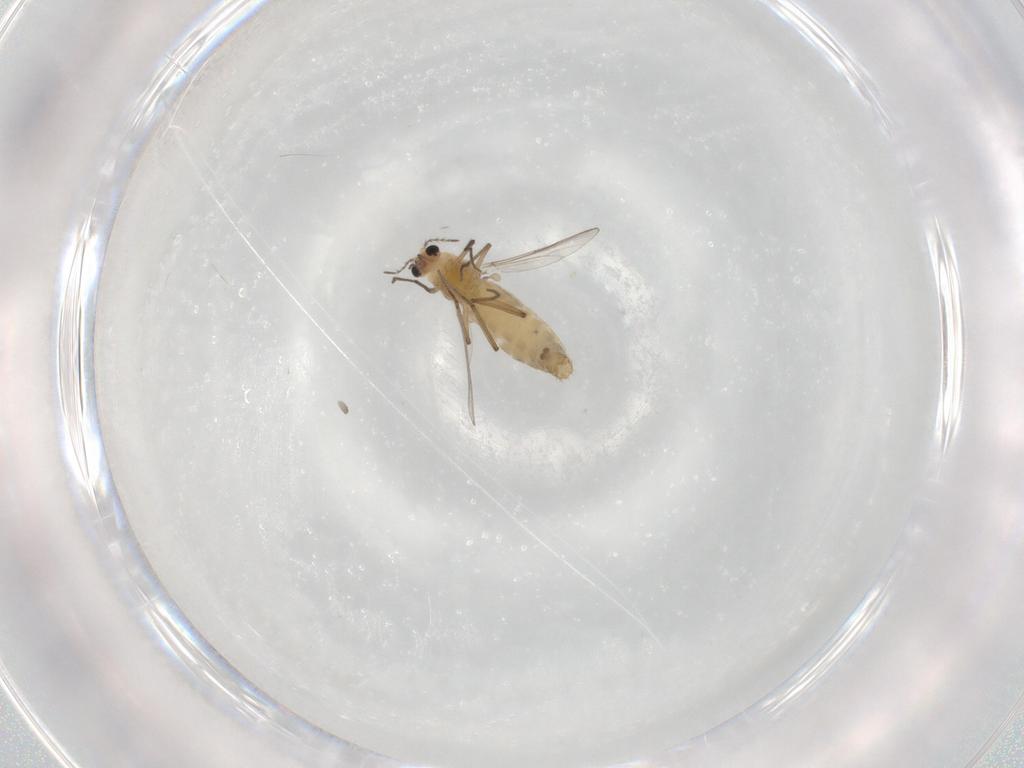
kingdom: Animalia
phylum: Arthropoda
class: Insecta
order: Diptera
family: Chironomidae
